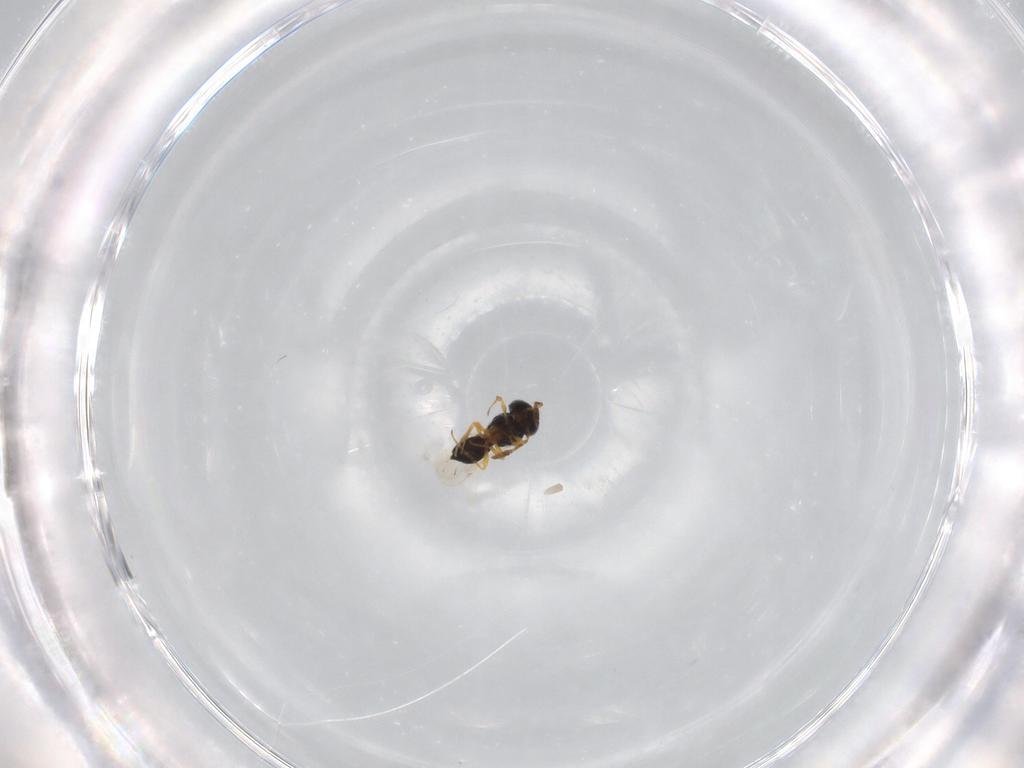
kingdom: Animalia
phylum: Arthropoda
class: Insecta
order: Hymenoptera
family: Scelionidae
